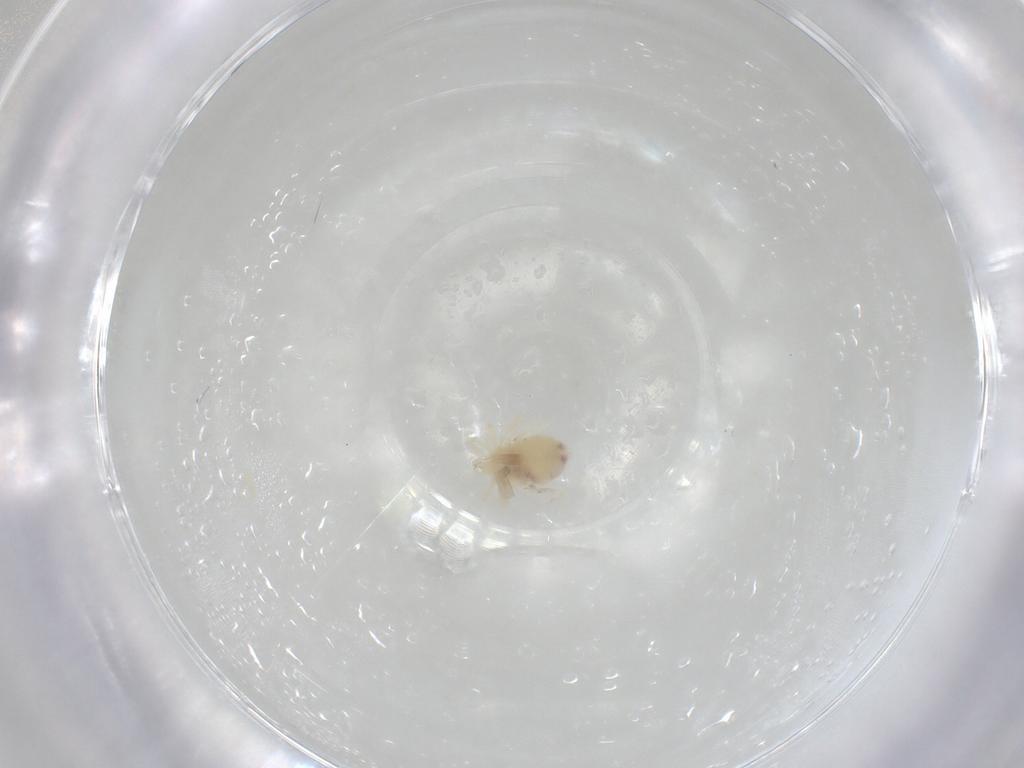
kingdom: Animalia
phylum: Arthropoda
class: Arachnida
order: Trombidiformes
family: Anystidae
